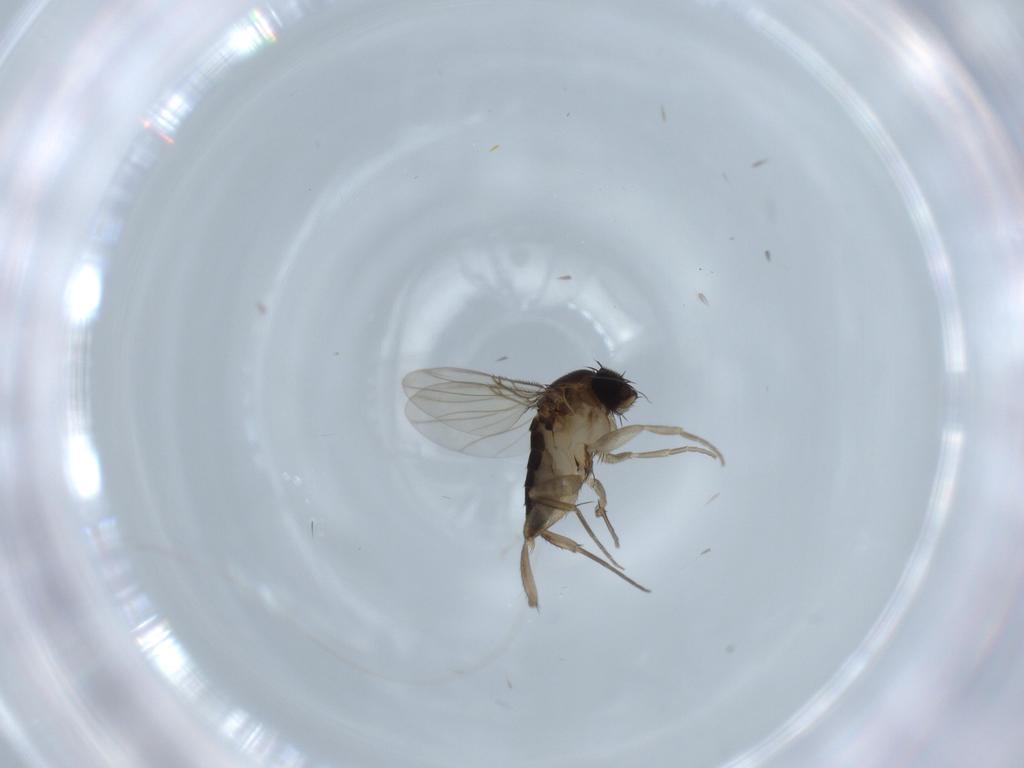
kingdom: Animalia
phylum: Arthropoda
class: Insecta
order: Diptera
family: Phoridae
